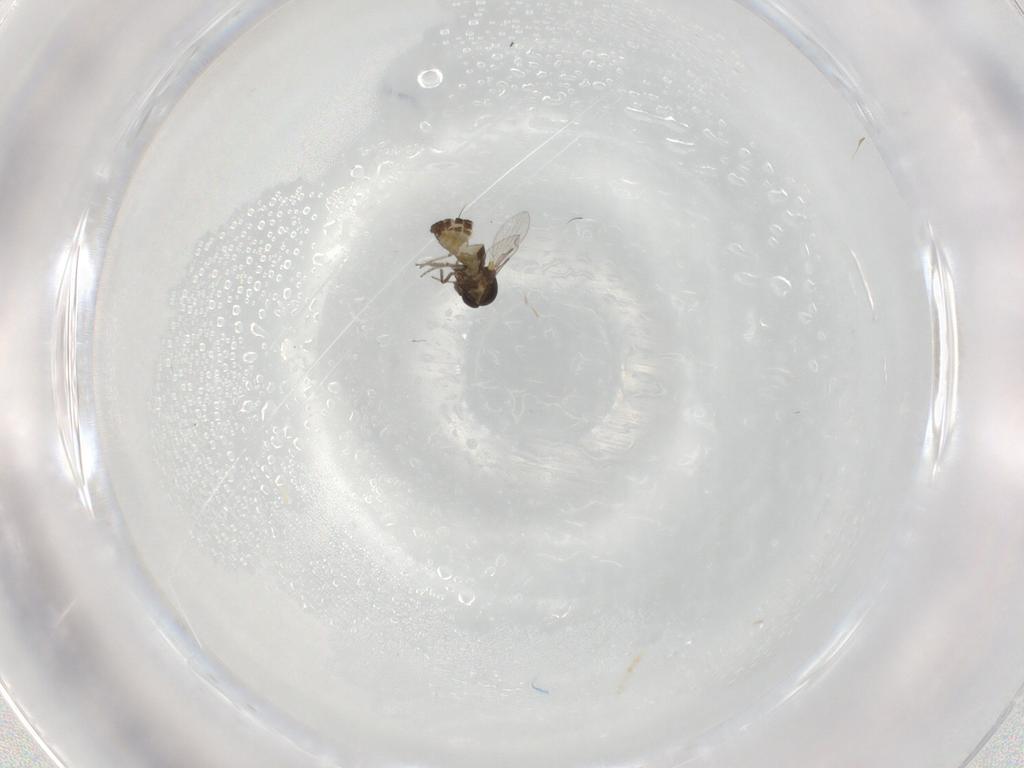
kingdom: Animalia
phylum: Arthropoda
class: Insecta
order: Diptera
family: Ceratopogonidae
